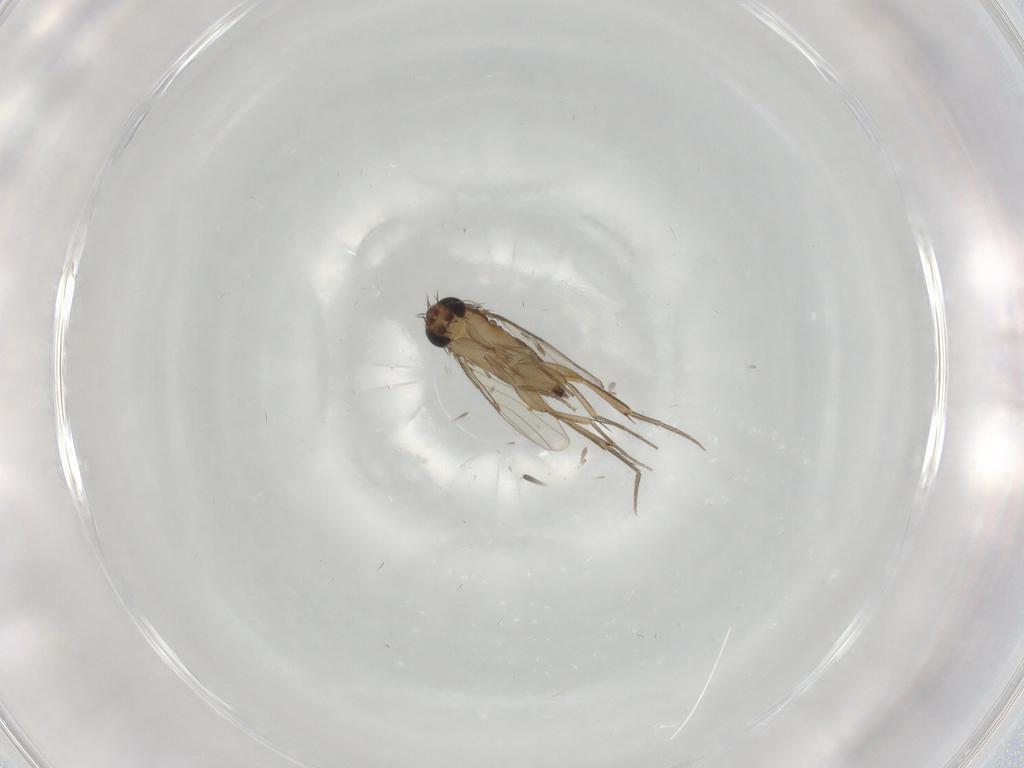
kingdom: Animalia
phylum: Arthropoda
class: Insecta
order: Diptera
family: Phoridae
